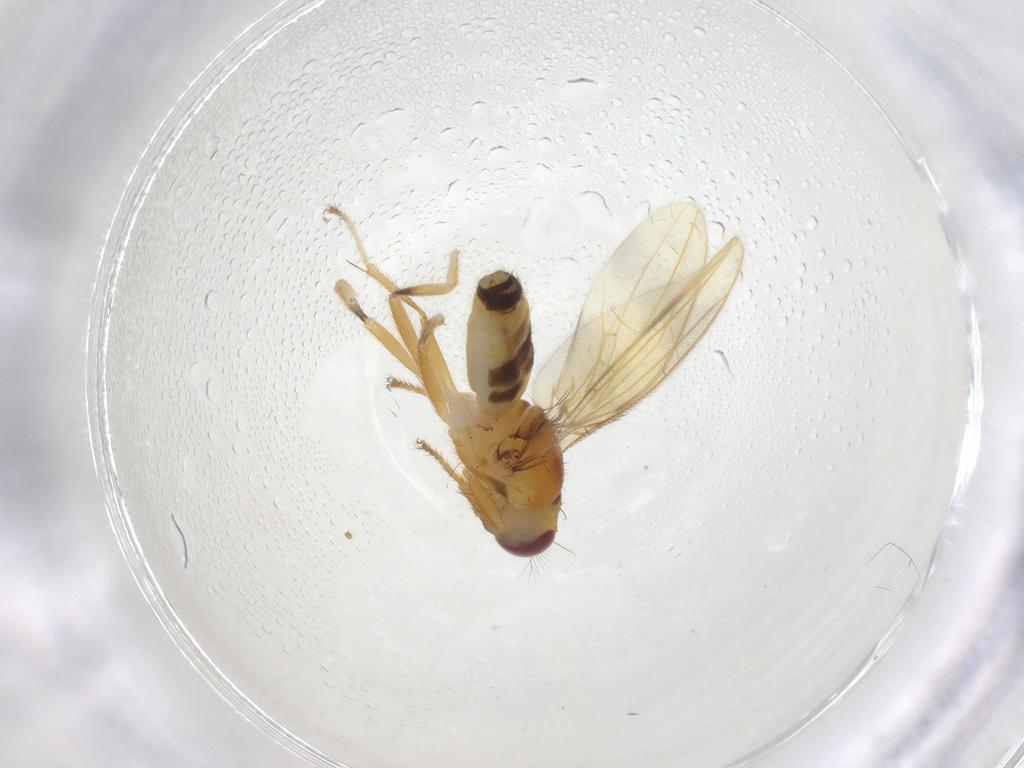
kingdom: Animalia
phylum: Arthropoda
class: Insecta
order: Diptera
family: Periscelididae
